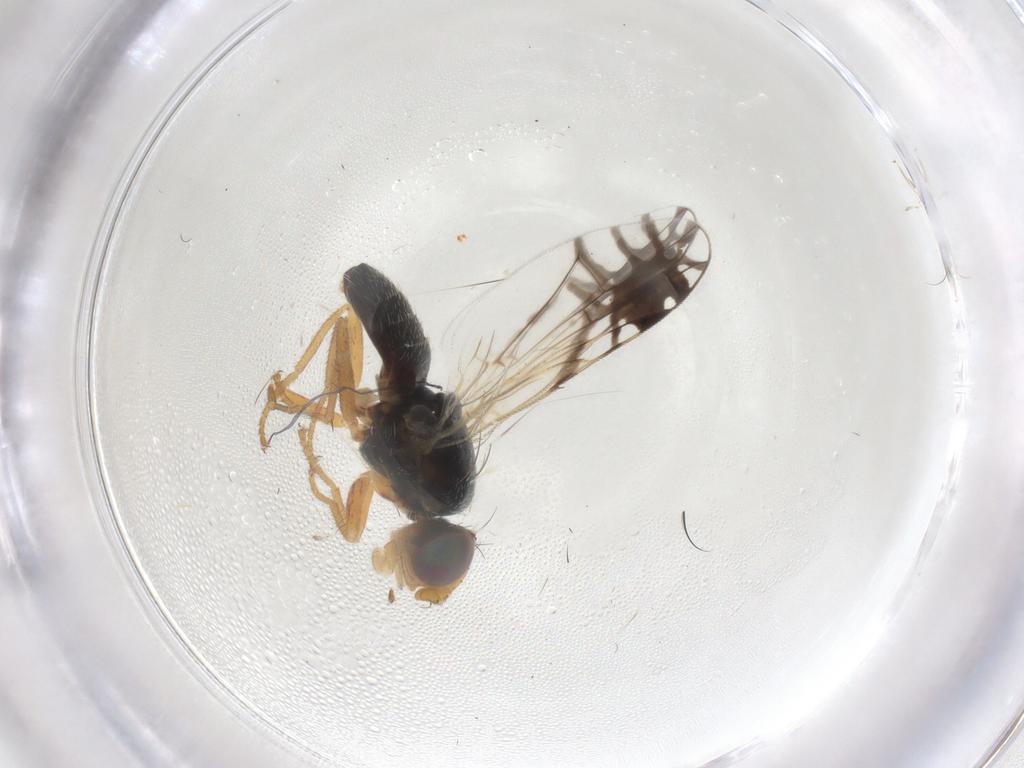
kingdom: Animalia
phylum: Arthropoda
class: Insecta
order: Diptera
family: Tephritidae
